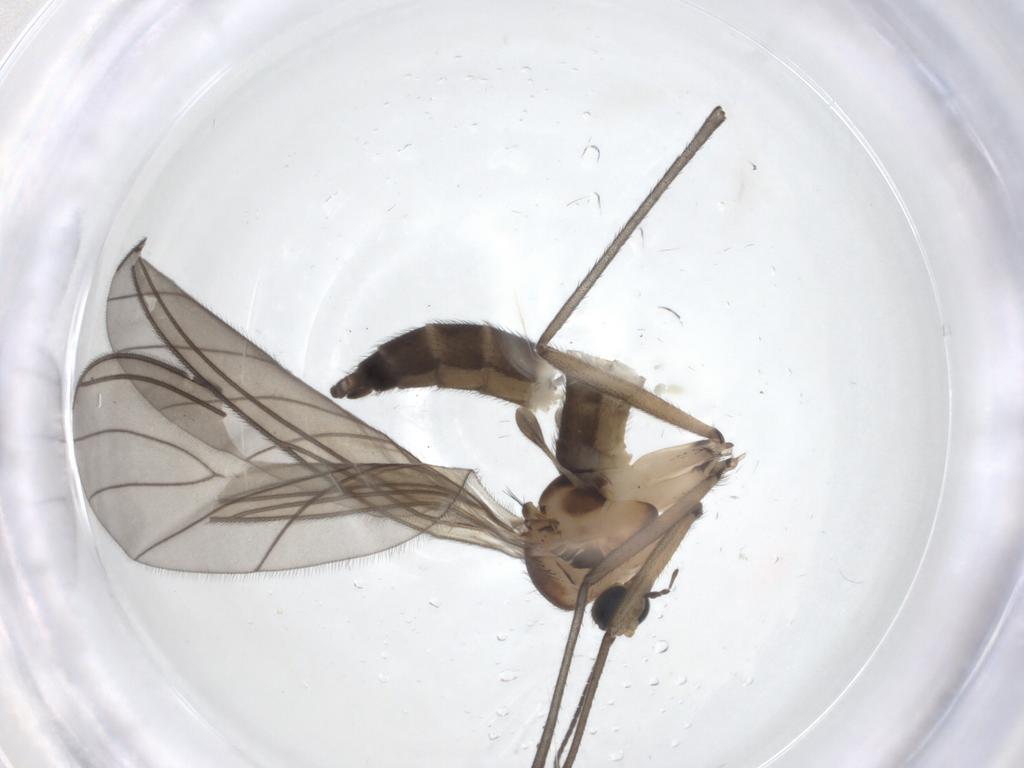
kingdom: Animalia
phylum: Arthropoda
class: Insecta
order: Diptera
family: Sciaridae
